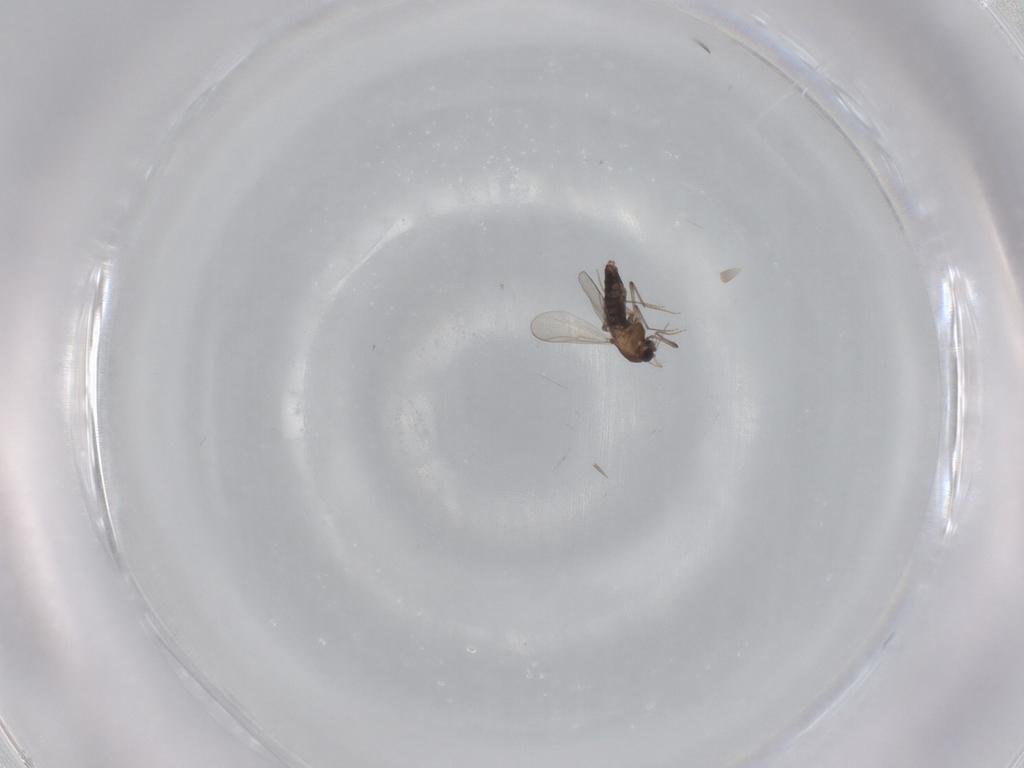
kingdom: Animalia
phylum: Arthropoda
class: Insecta
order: Diptera
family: Chironomidae
